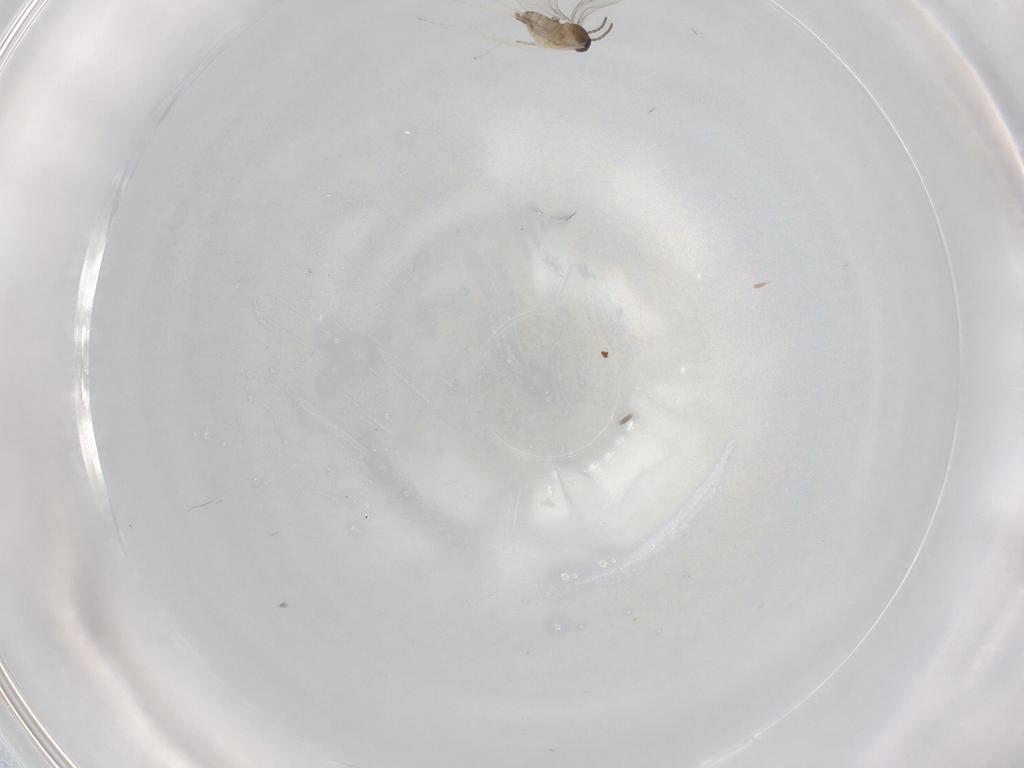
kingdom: Animalia
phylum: Arthropoda
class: Insecta
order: Diptera
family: Cecidomyiidae
